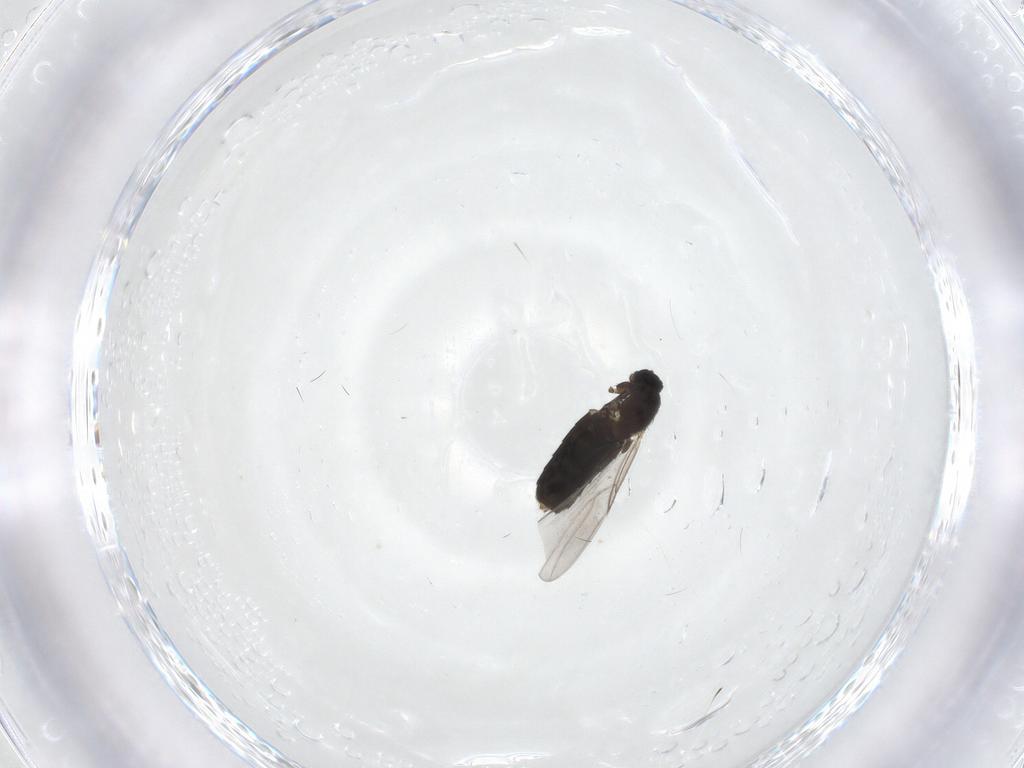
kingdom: Animalia
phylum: Arthropoda
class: Insecta
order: Diptera
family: Scatopsidae
